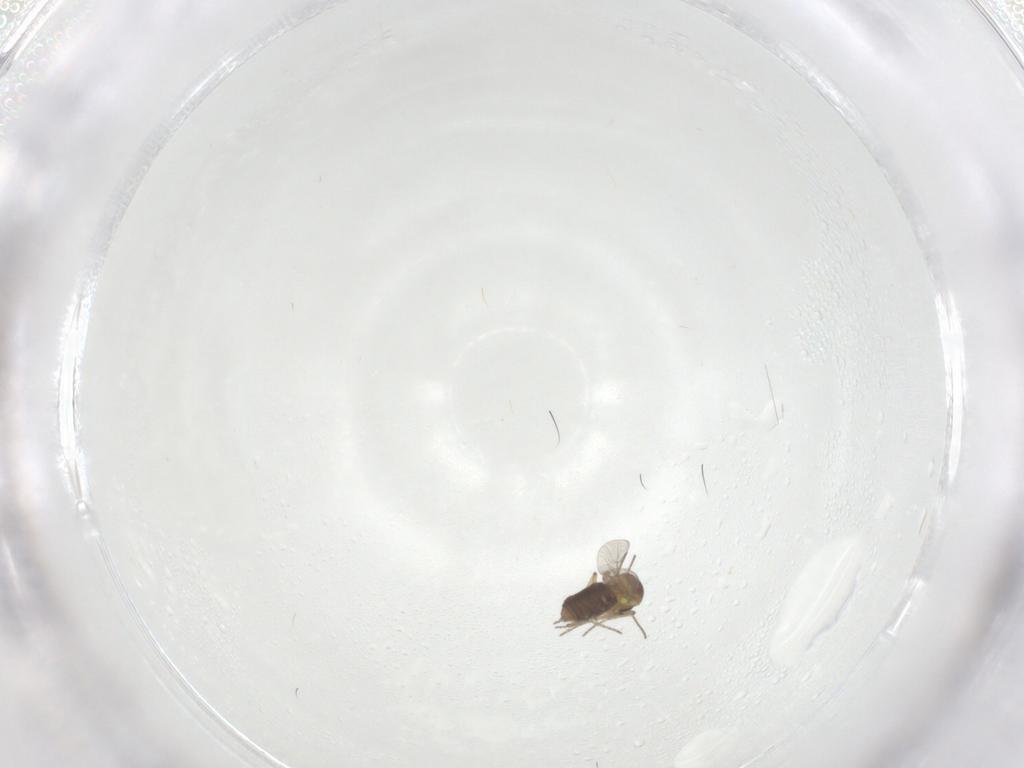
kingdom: Animalia
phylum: Arthropoda
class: Insecta
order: Diptera
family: Ceratopogonidae
